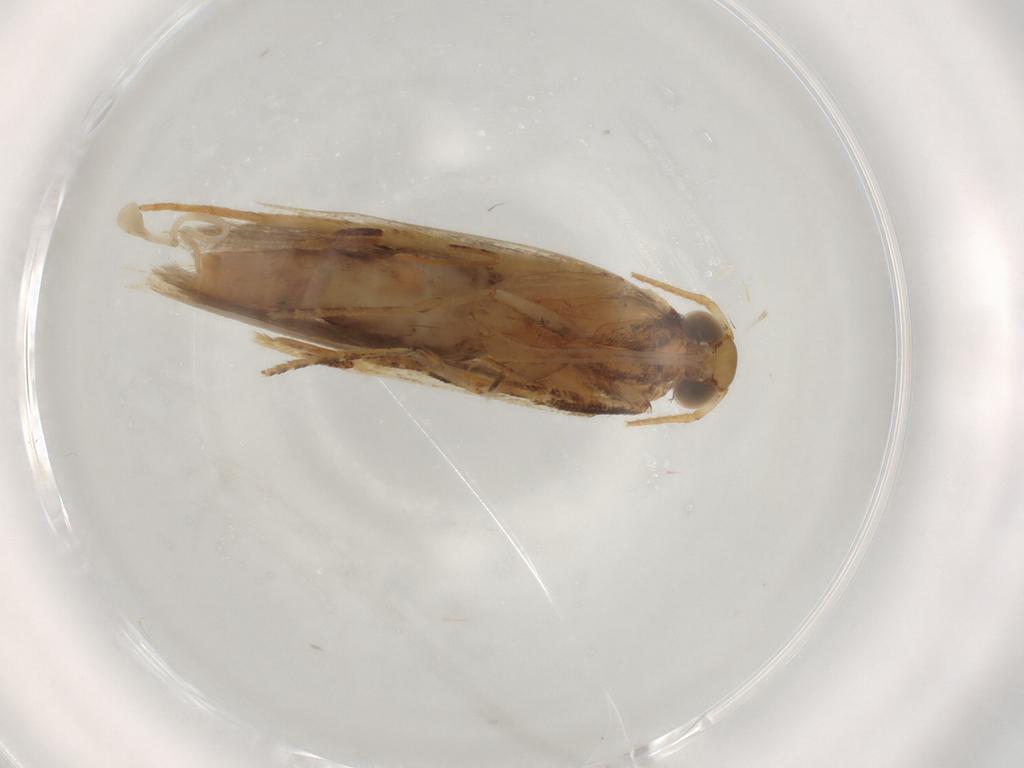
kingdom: Animalia
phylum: Arthropoda
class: Insecta
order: Lepidoptera
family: Gelechiidae
